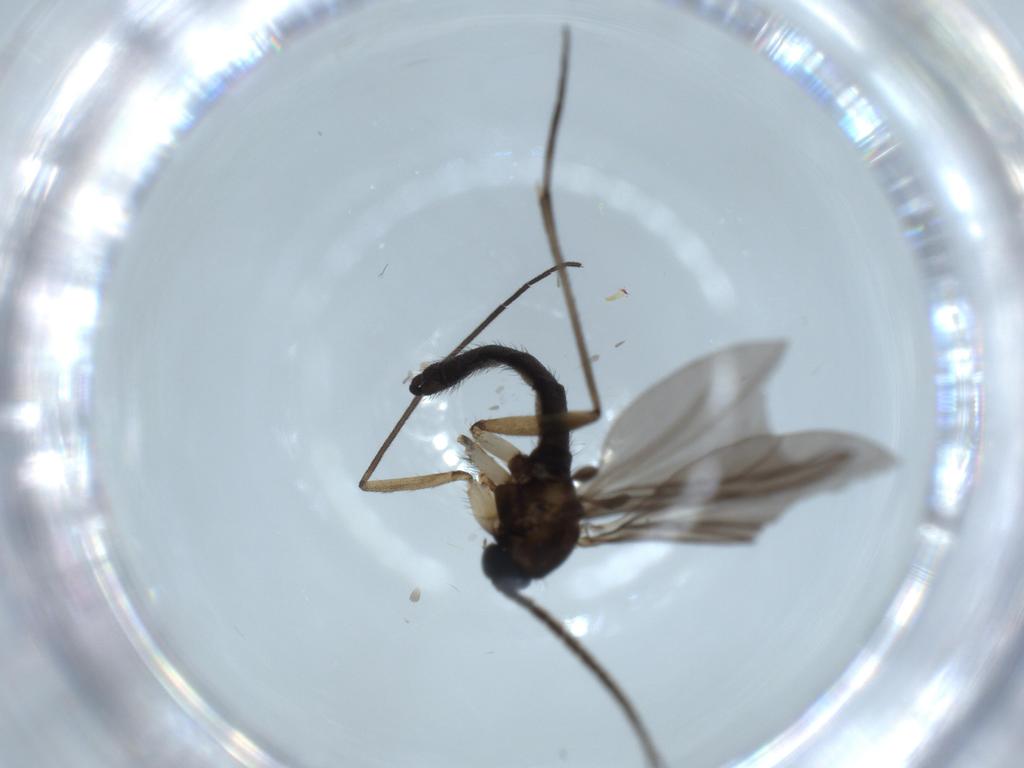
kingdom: Animalia
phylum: Arthropoda
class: Insecta
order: Diptera
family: Sciaridae
